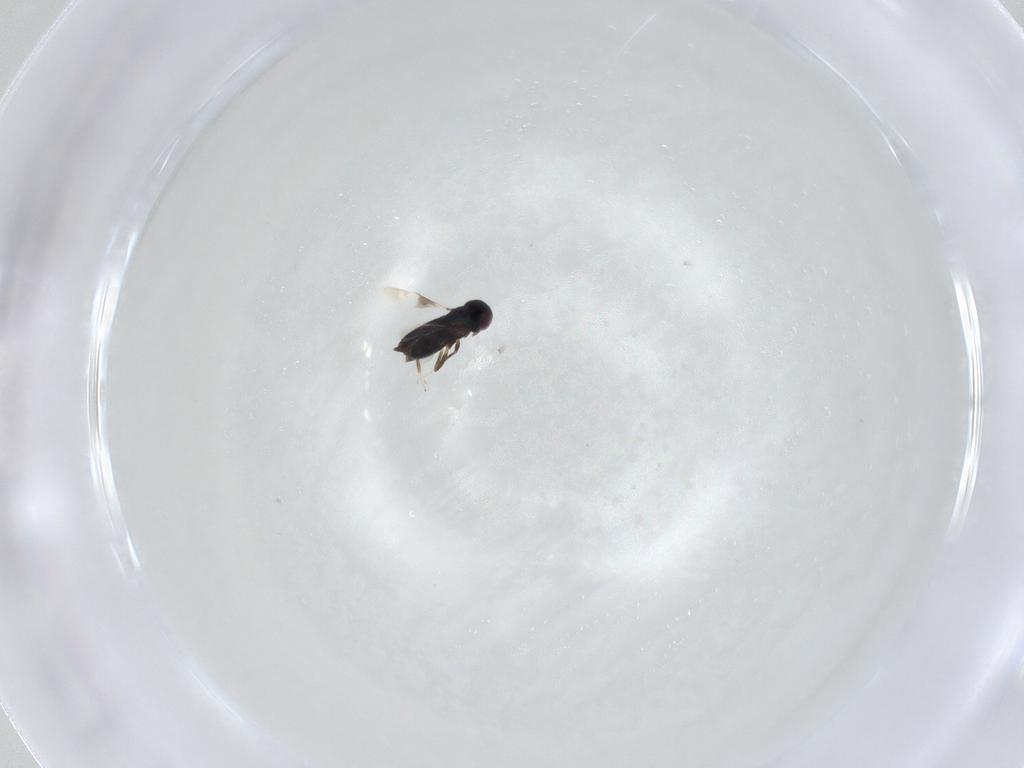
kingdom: Animalia
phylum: Arthropoda
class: Insecta
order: Hymenoptera
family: Signiphoridae
